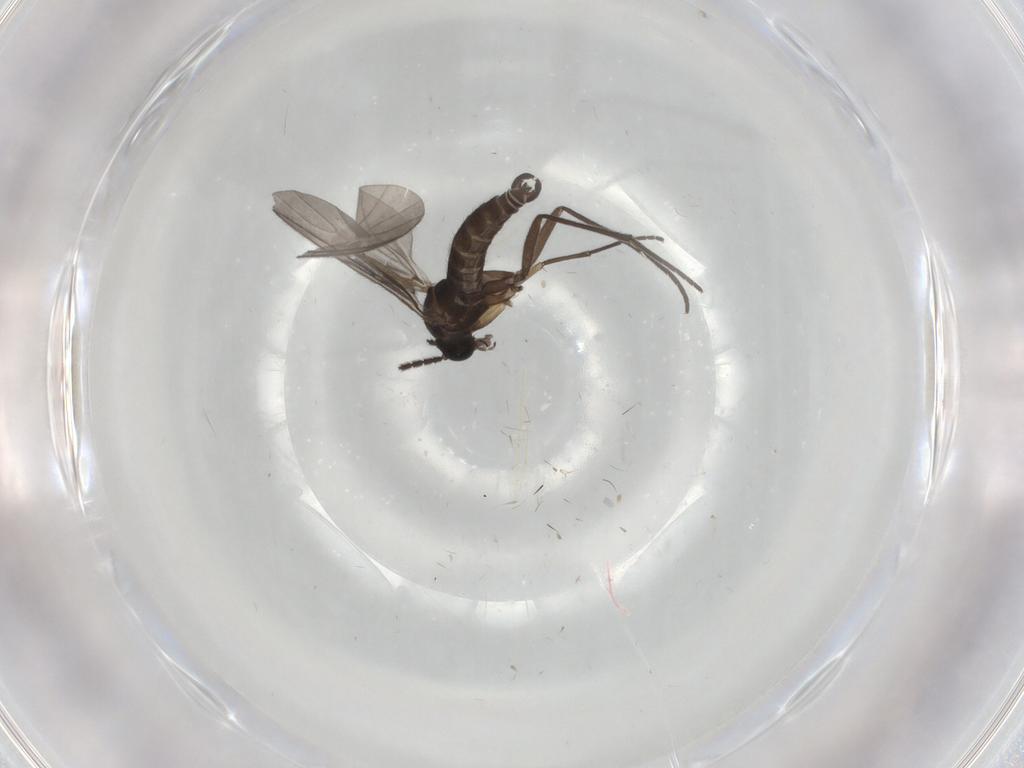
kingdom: Animalia
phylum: Arthropoda
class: Insecta
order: Diptera
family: Sciaridae
